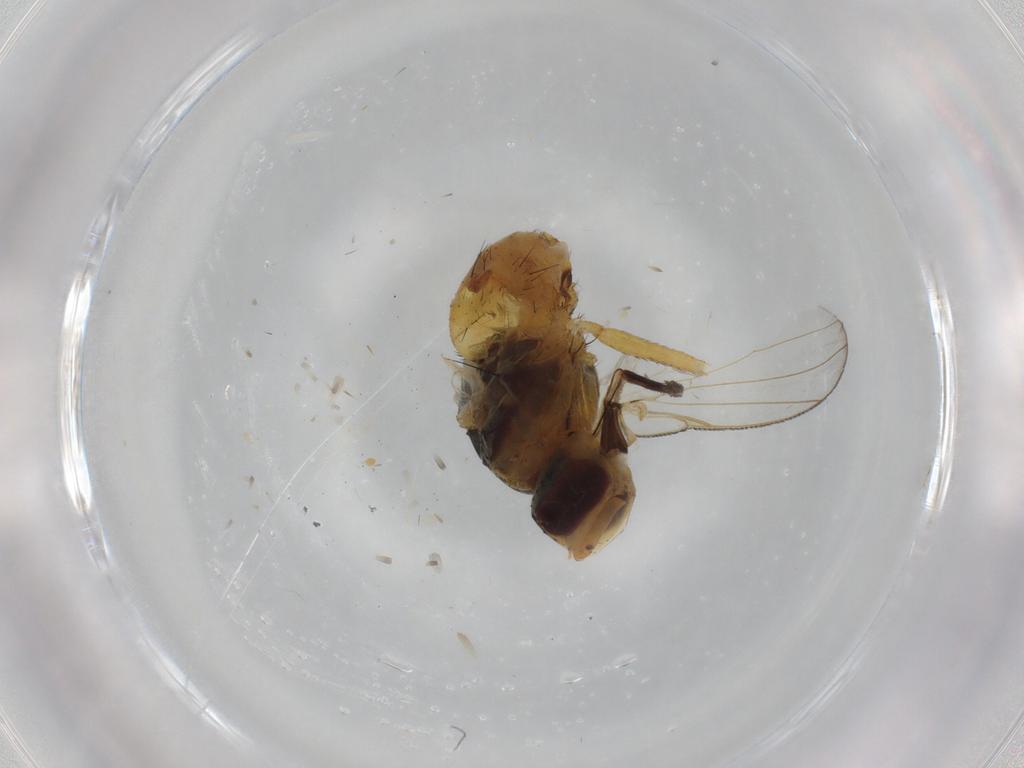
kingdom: Animalia
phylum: Arthropoda
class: Insecta
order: Diptera
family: Muscidae
